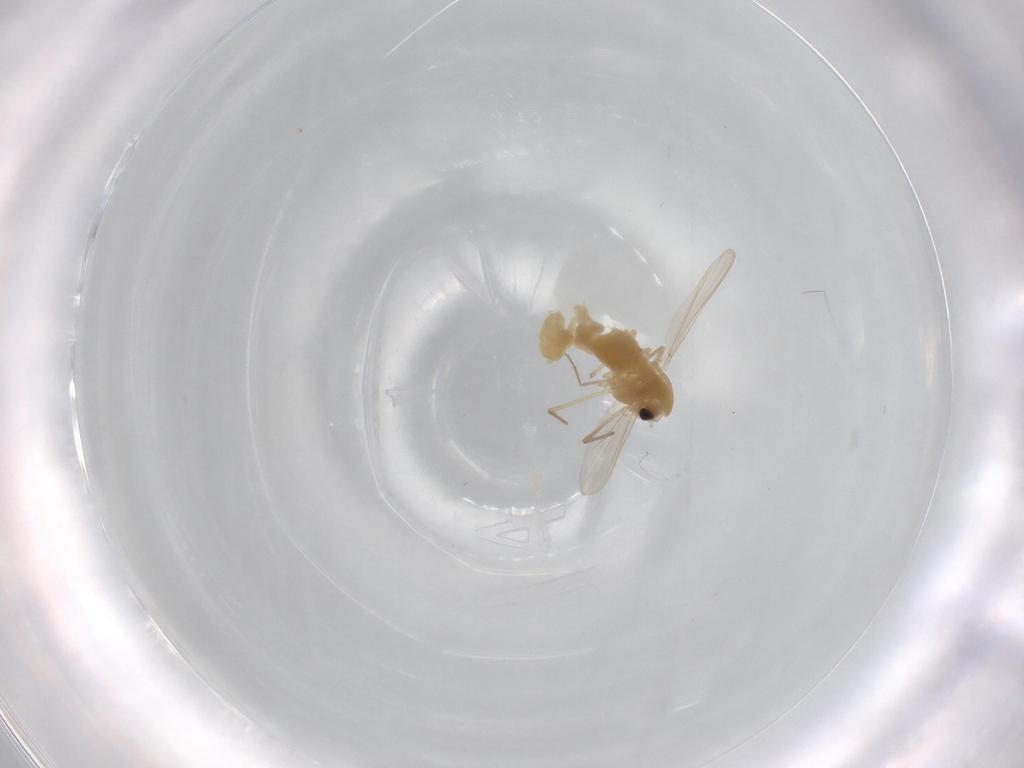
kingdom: Animalia
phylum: Arthropoda
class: Insecta
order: Diptera
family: Chironomidae
